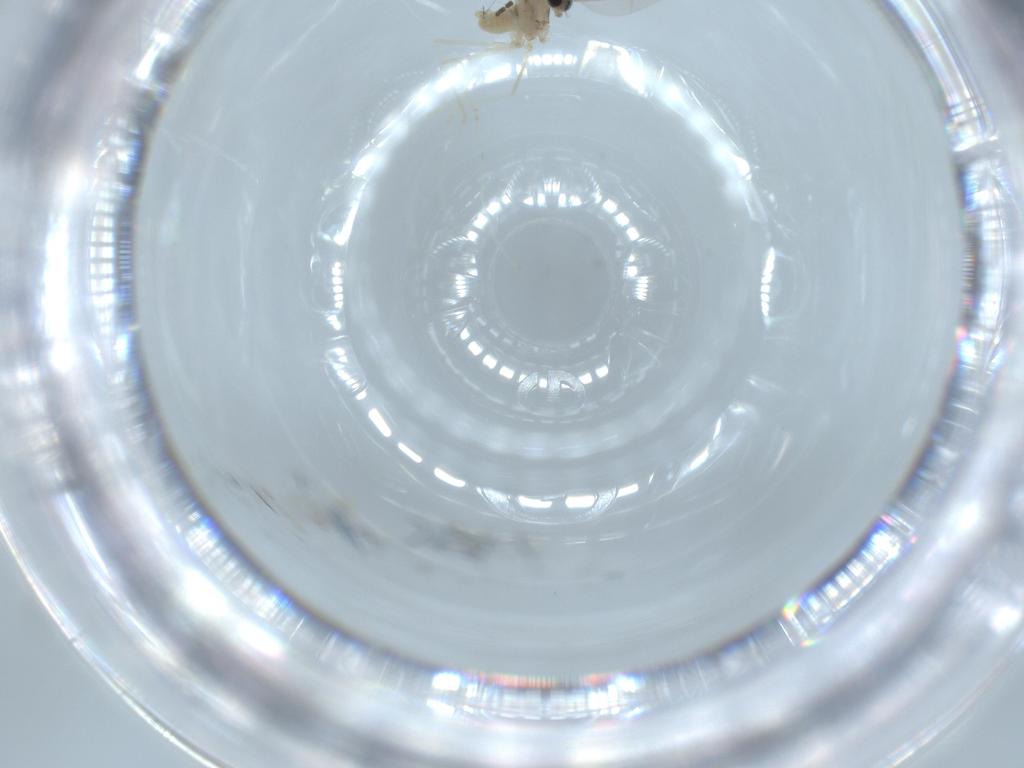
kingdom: Animalia
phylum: Arthropoda
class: Insecta
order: Diptera
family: Cecidomyiidae
